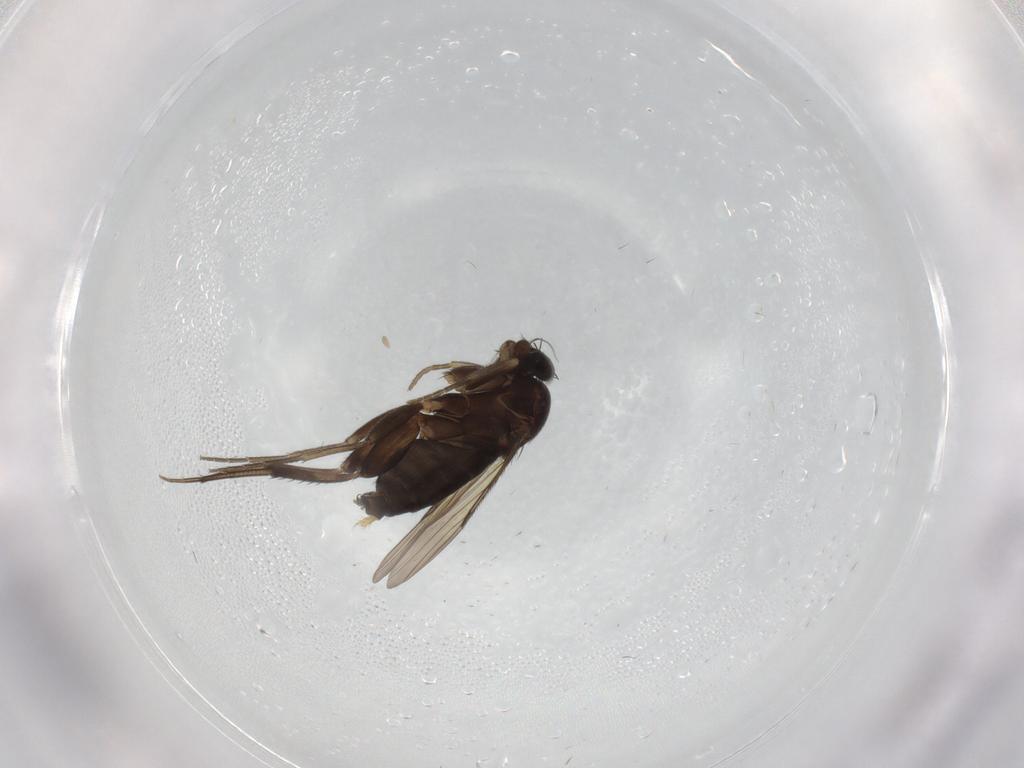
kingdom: Animalia
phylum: Arthropoda
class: Insecta
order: Diptera
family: Phoridae
